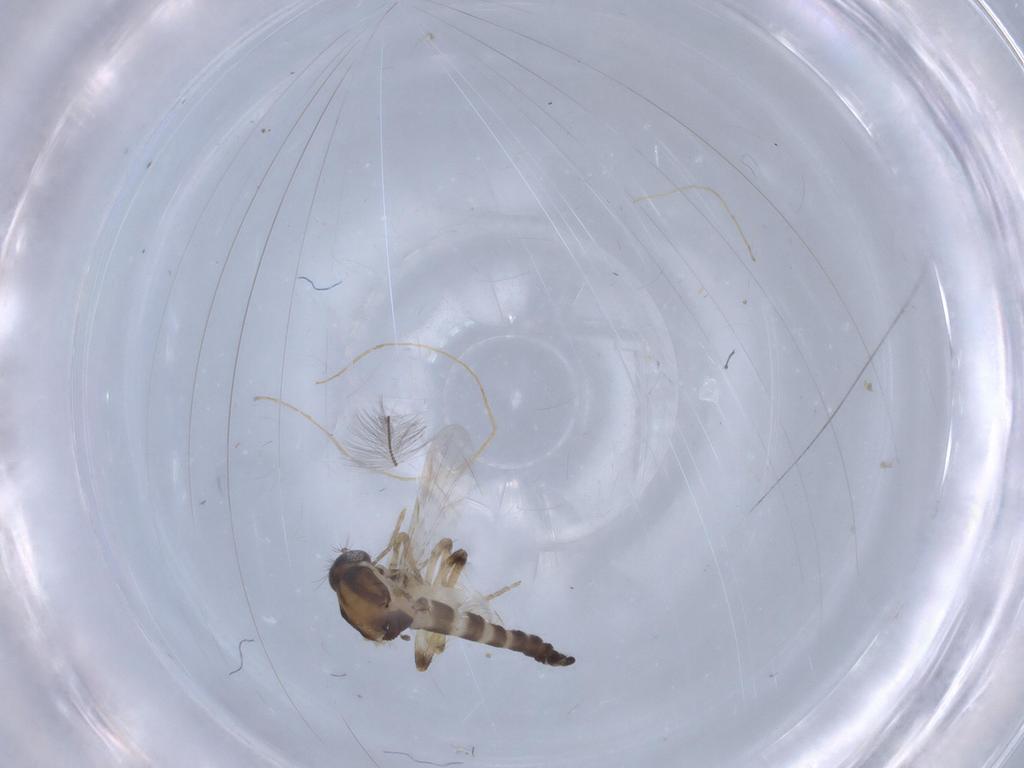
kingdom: Animalia
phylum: Arthropoda
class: Insecta
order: Diptera
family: Ceratopogonidae
